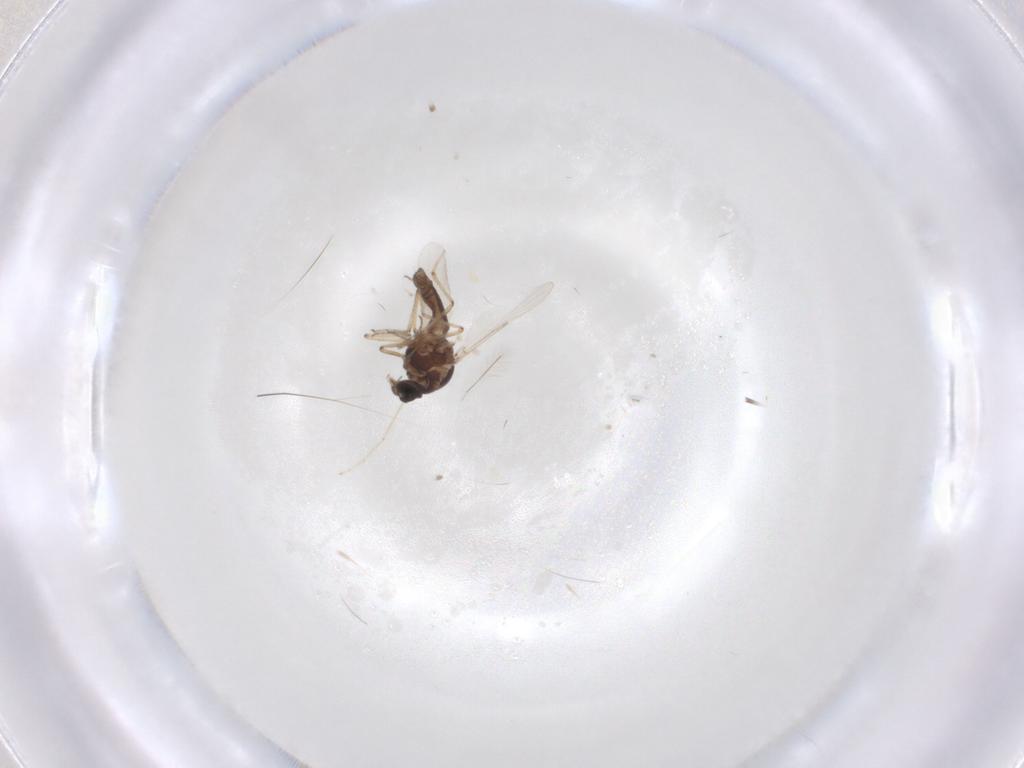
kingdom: Animalia
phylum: Arthropoda
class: Insecta
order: Diptera
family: Ceratopogonidae
